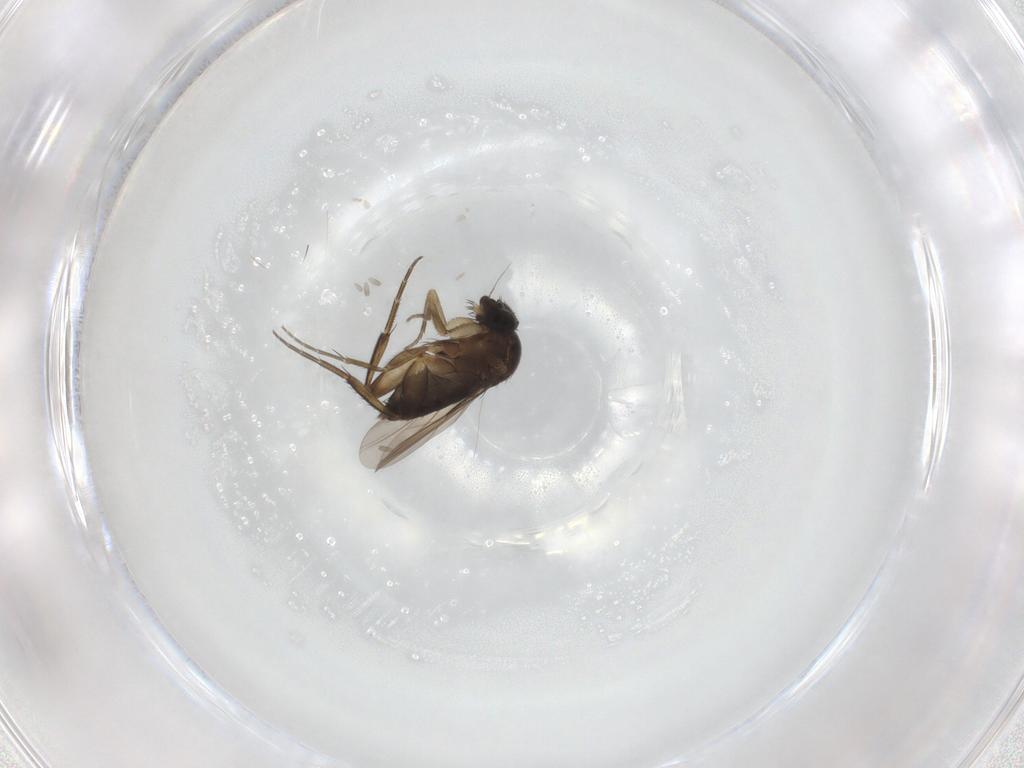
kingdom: Animalia
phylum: Arthropoda
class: Insecta
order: Diptera
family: Phoridae
